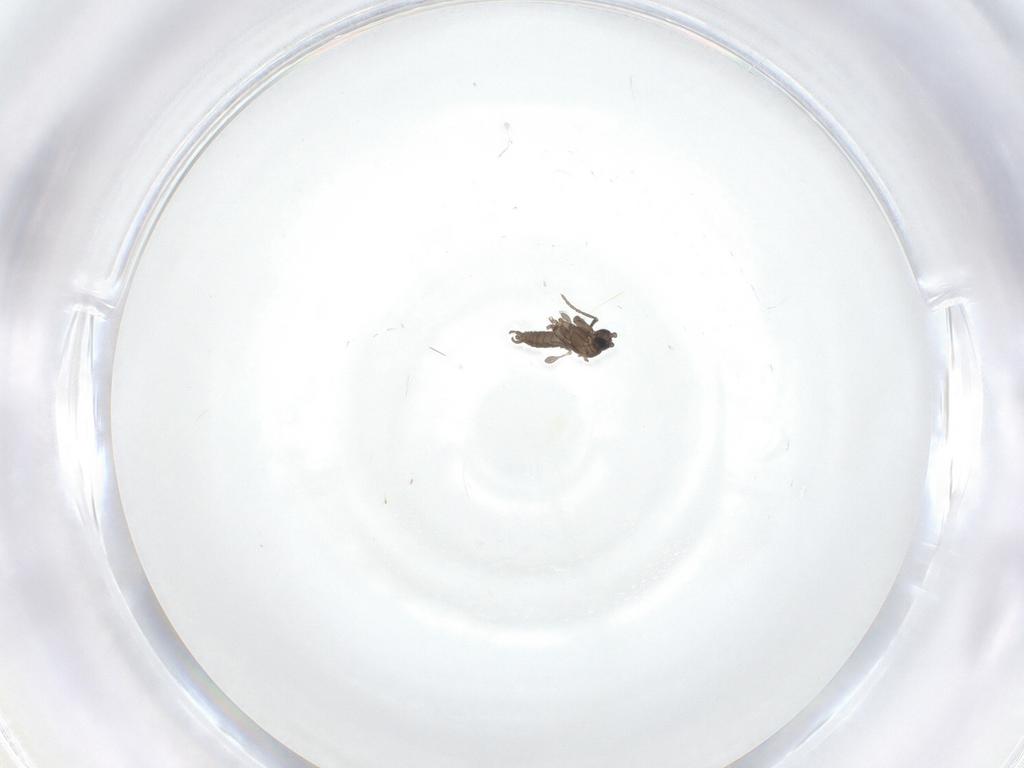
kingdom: Animalia
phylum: Arthropoda
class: Insecta
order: Diptera
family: Sciaridae
